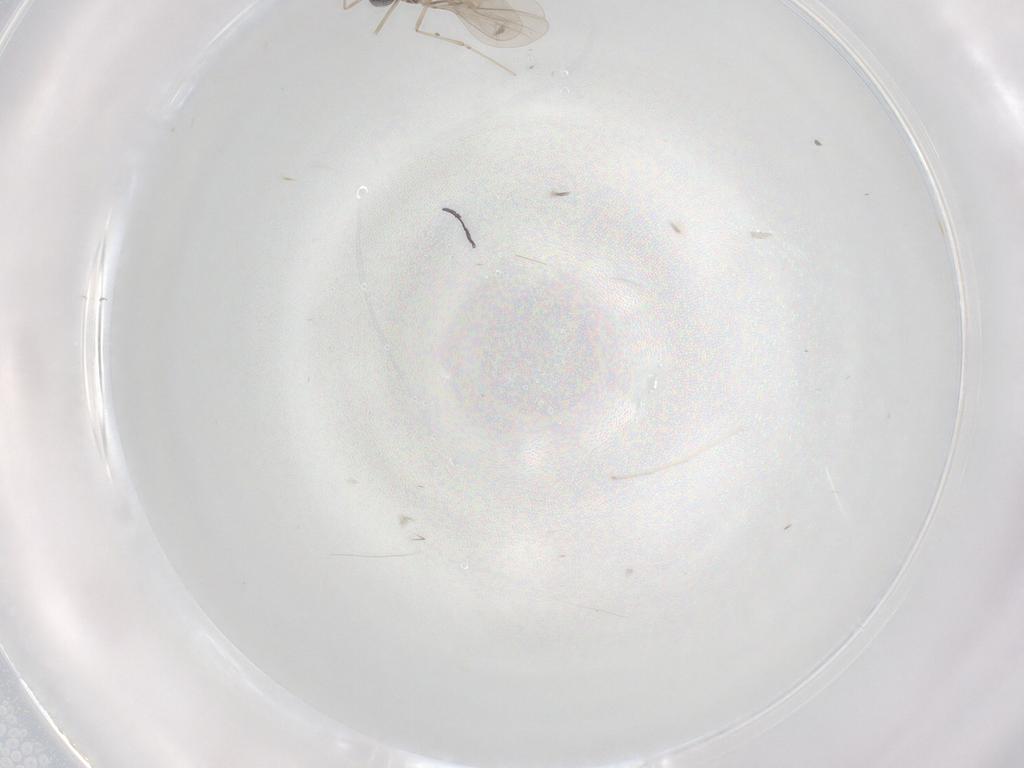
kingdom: Animalia
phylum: Arthropoda
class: Insecta
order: Diptera
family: Cecidomyiidae
